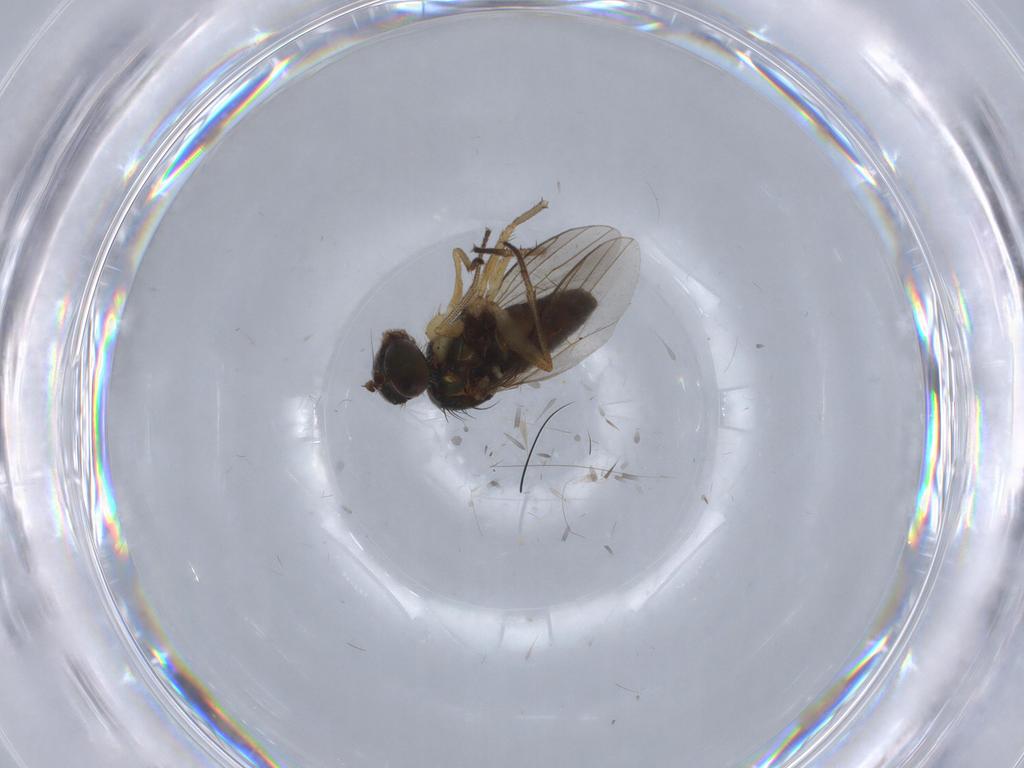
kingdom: Animalia
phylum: Arthropoda
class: Insecta
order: Diptera
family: Dolichopodidae
